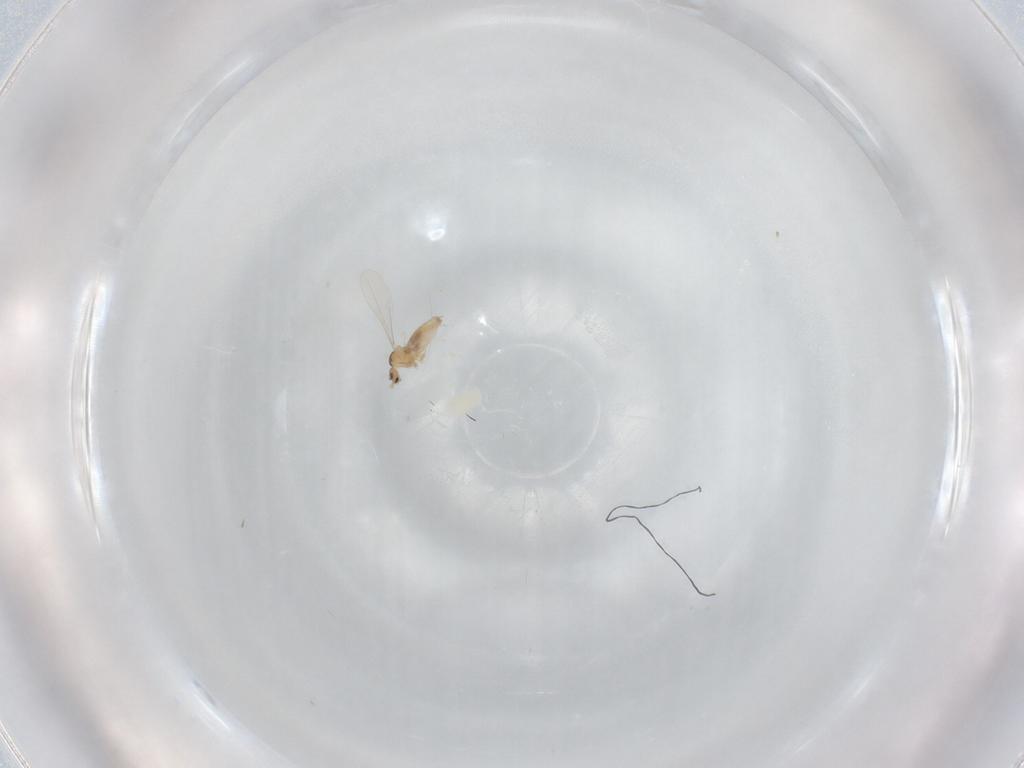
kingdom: Animalia
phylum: Arthropoda
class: Insecta
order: Diptera
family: Cecidomyiidae
